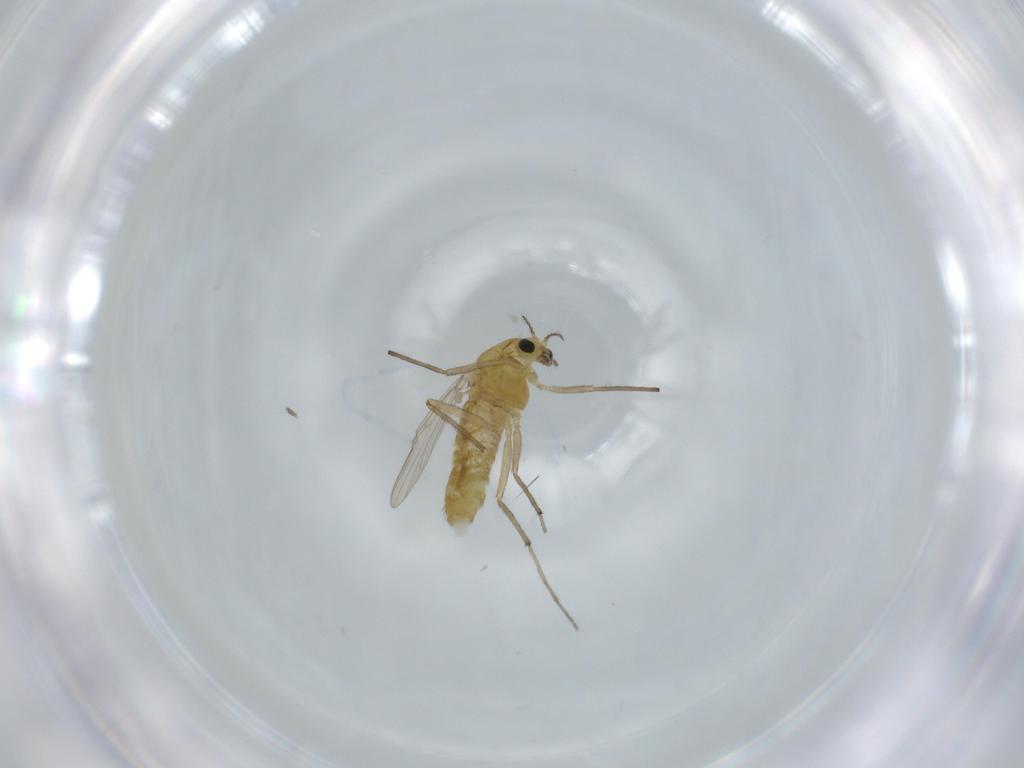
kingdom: Animalia
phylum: Arthropoda
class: Insecta
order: Diptera
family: Chironomidae
